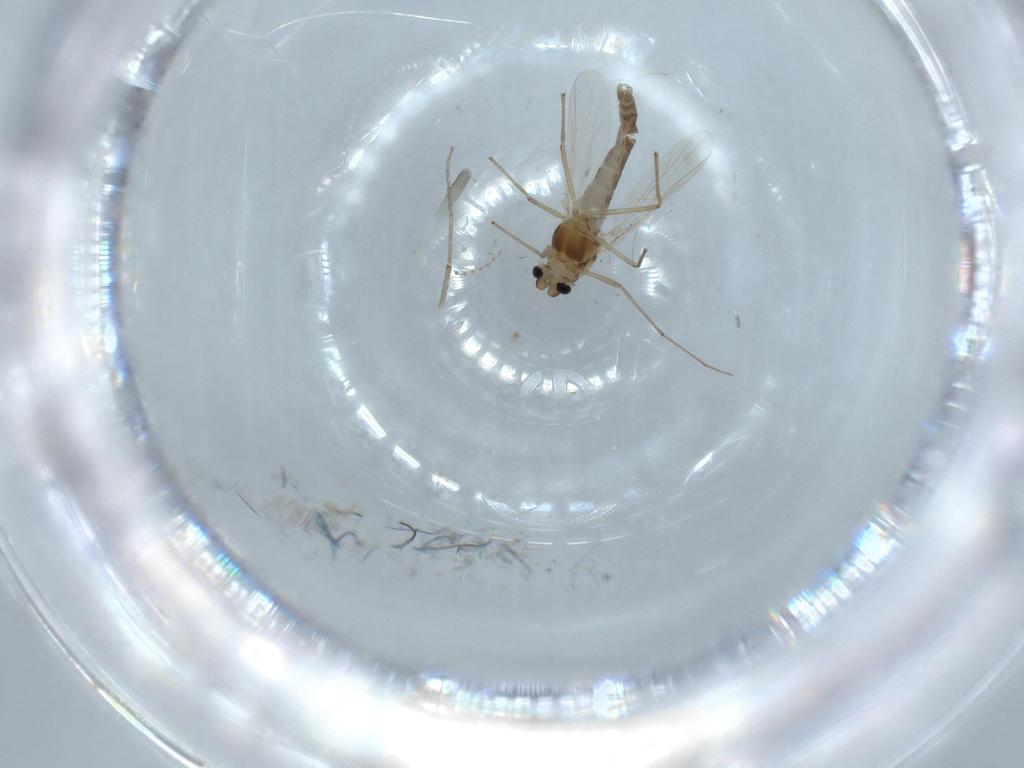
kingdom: Animalia
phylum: Arthropoda
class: Insecta
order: Diptera
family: Chironomidae
